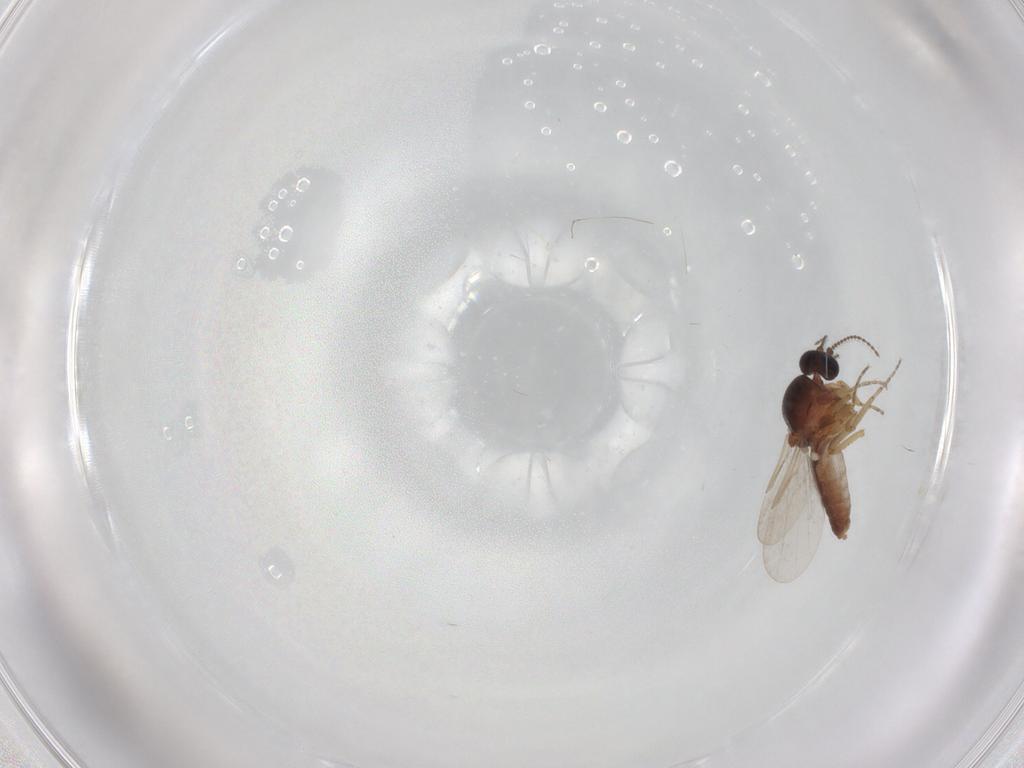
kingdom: Animalia
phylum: Arthropoda
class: Insecta
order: Diptera
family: Ceratopogonidae
